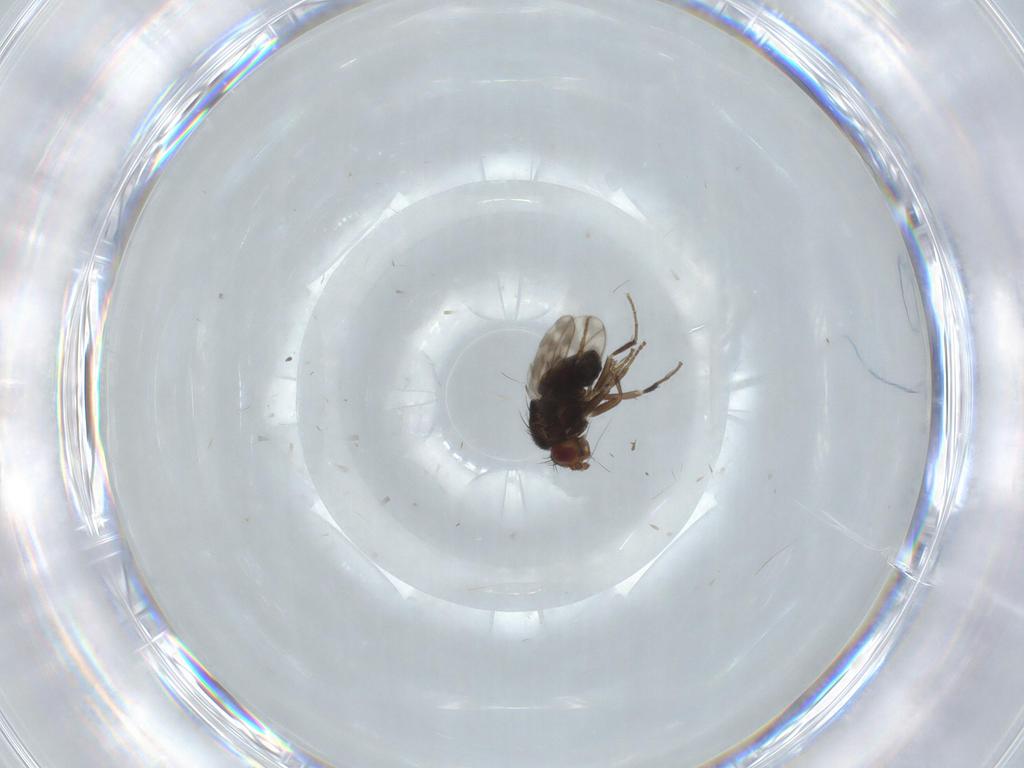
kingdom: Animalia
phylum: Arthropoda
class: Insecta
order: Diptera
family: Sphaeroceridae
